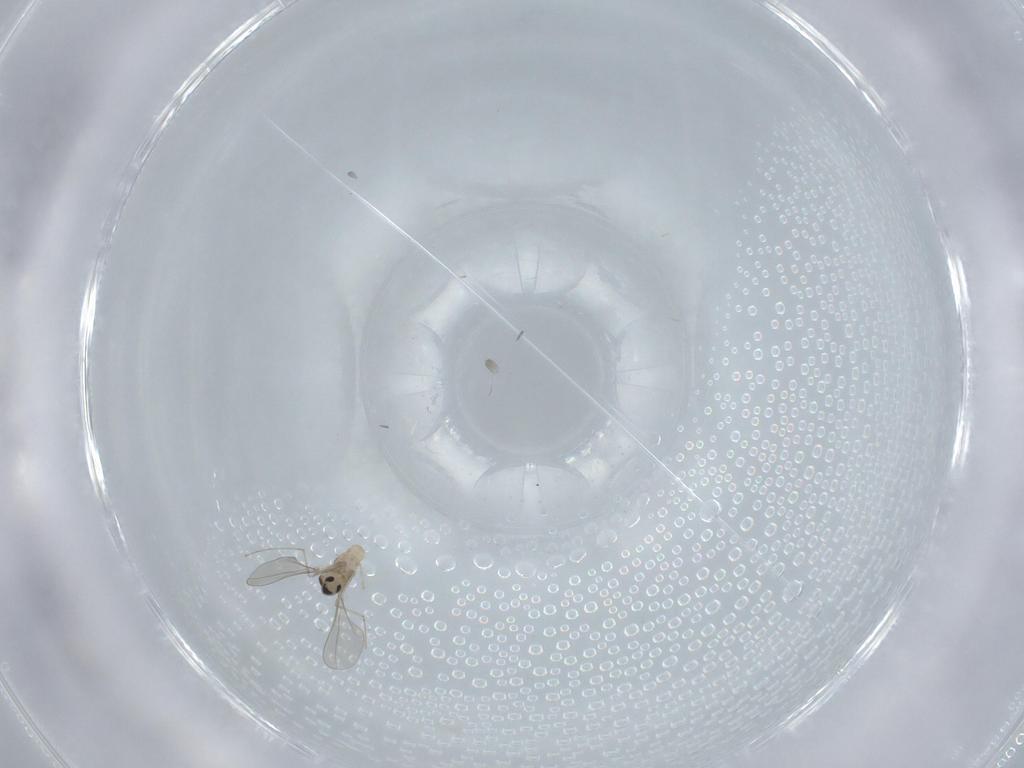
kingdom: Animalia
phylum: Arthropoda
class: Insecta
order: Diptera
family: Cecidomyiidae
